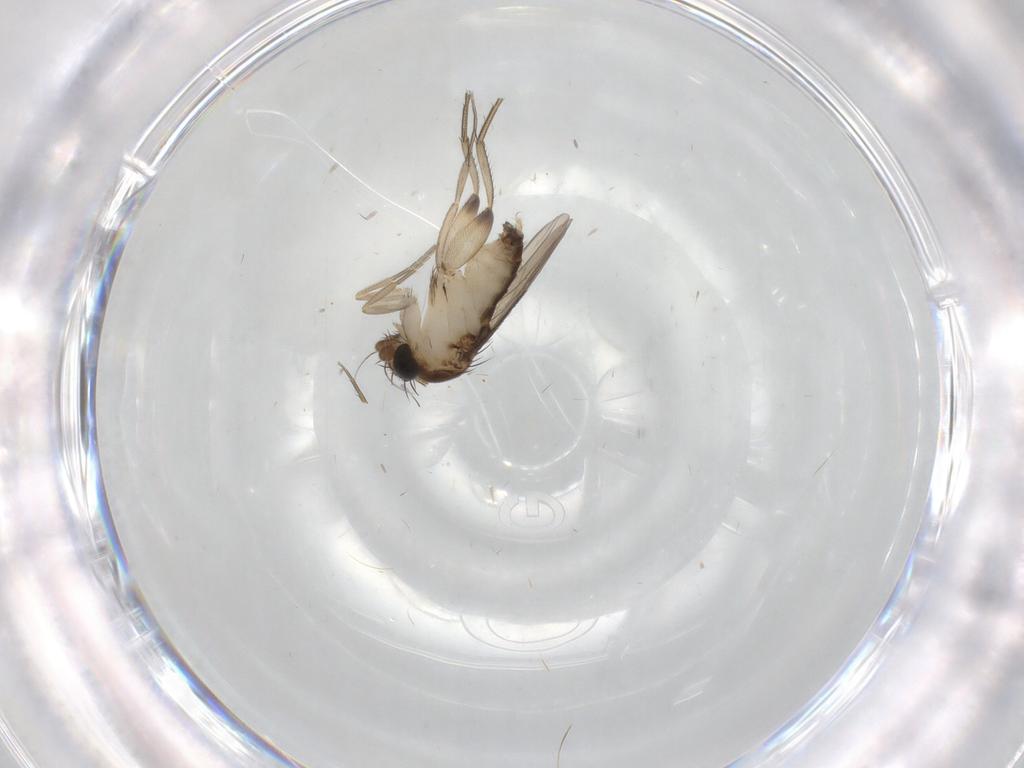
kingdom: Animalia
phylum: Arthropoda
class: Insecta
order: Diptera
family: Phoridae
